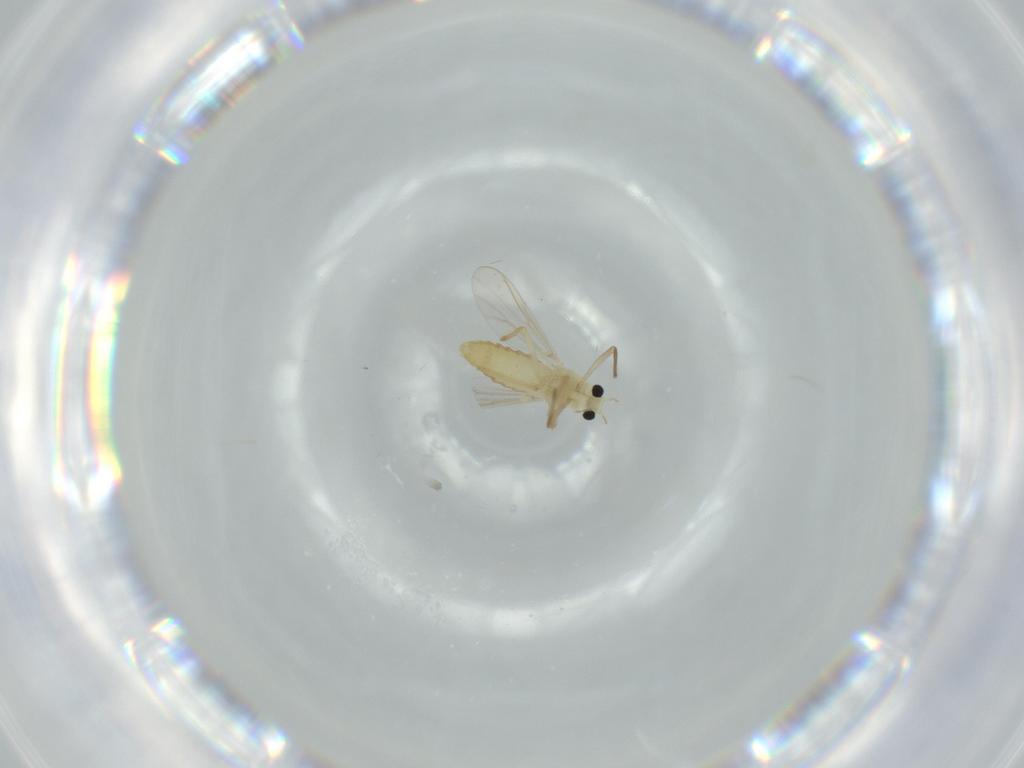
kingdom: Animalia
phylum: Arthropoda
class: Insecta
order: Diptera
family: Chironomidae
